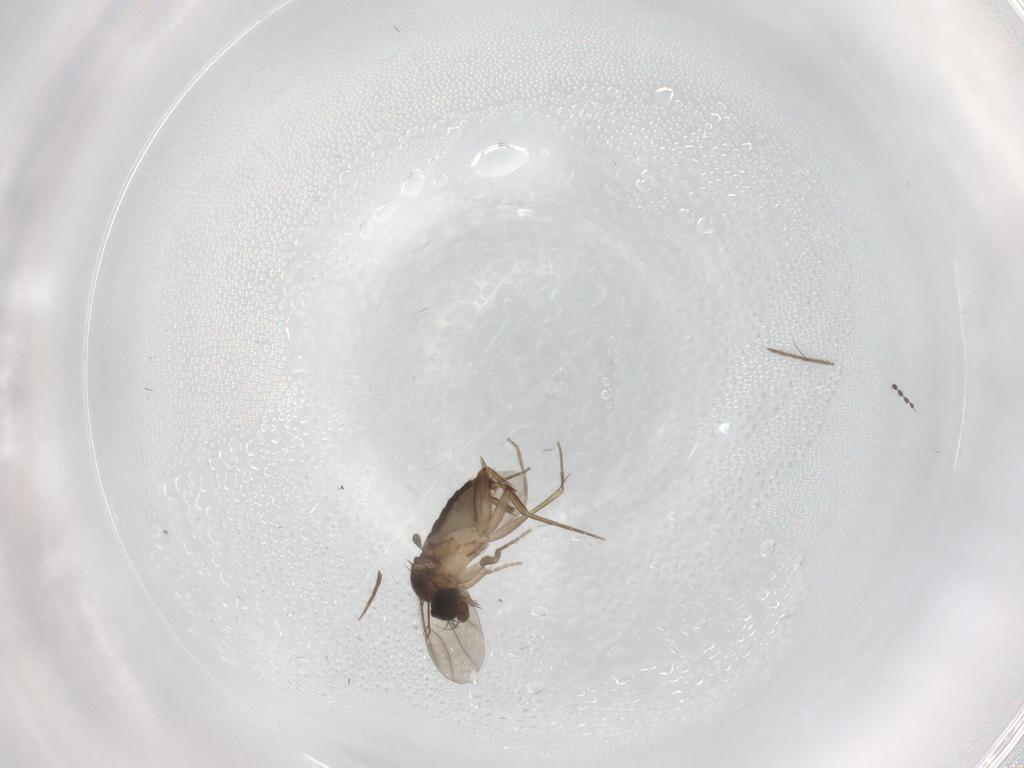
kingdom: Animalia
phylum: Arthropoda
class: Insecta
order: Diptera
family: Phoridae
